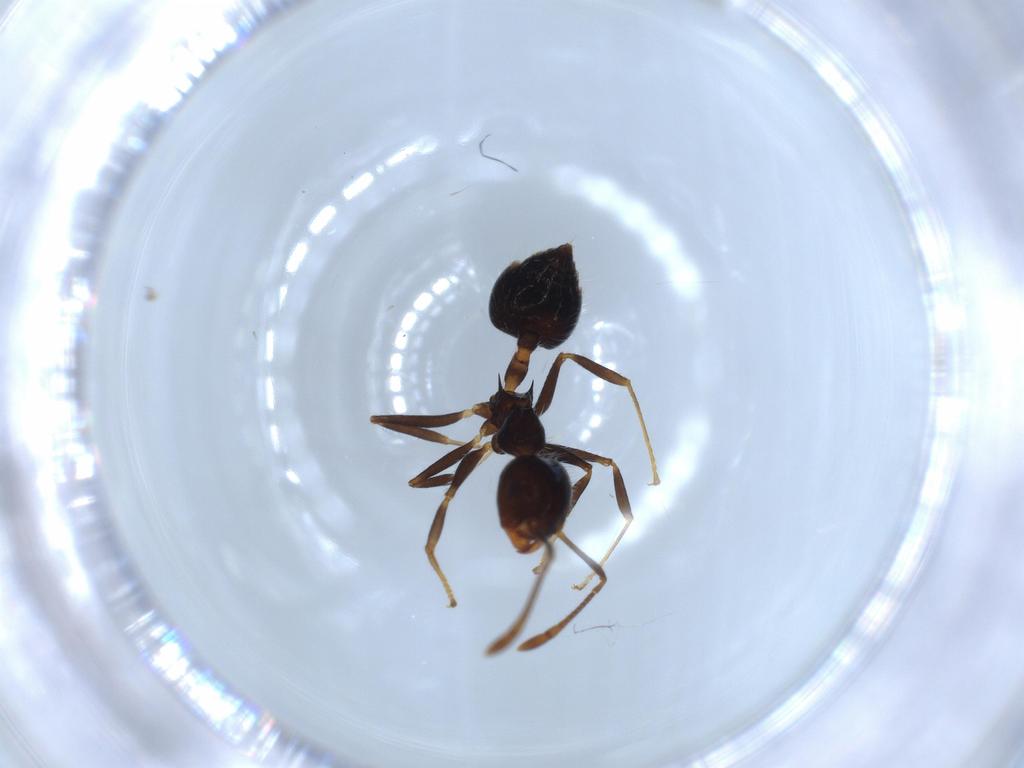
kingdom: Animalia
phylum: Arthropoda
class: Insecta
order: Hymenoptera
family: Formicidae
